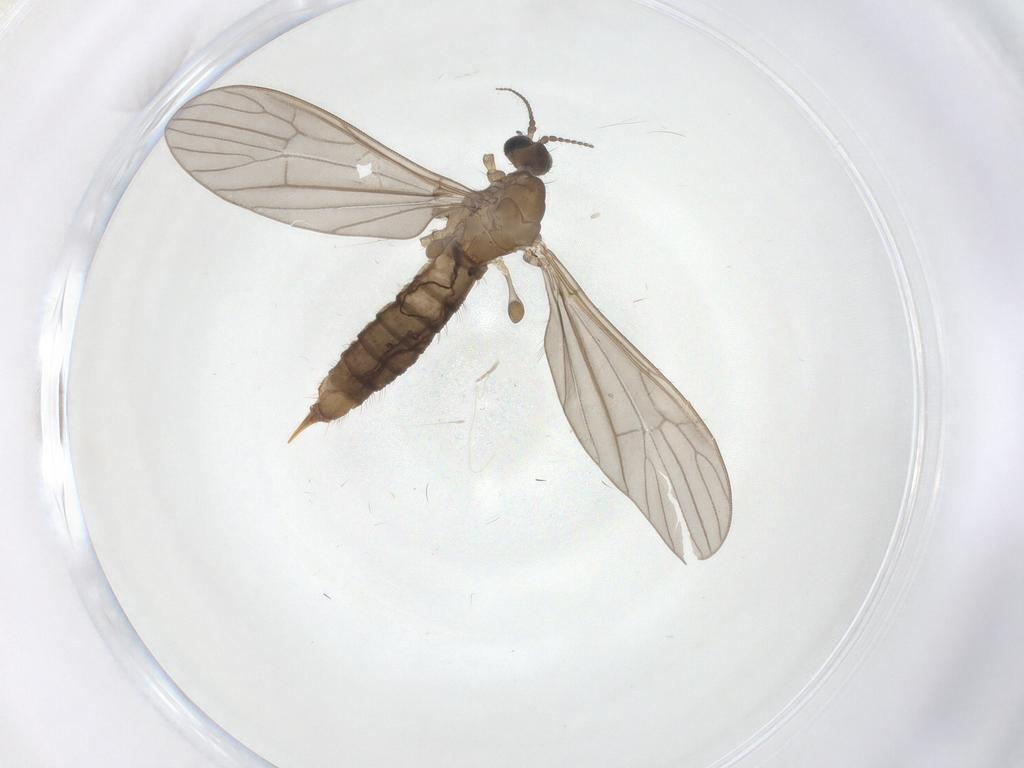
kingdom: Animalia
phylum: Arthropoda
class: Insecta
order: Diptera
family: Limoniidae
